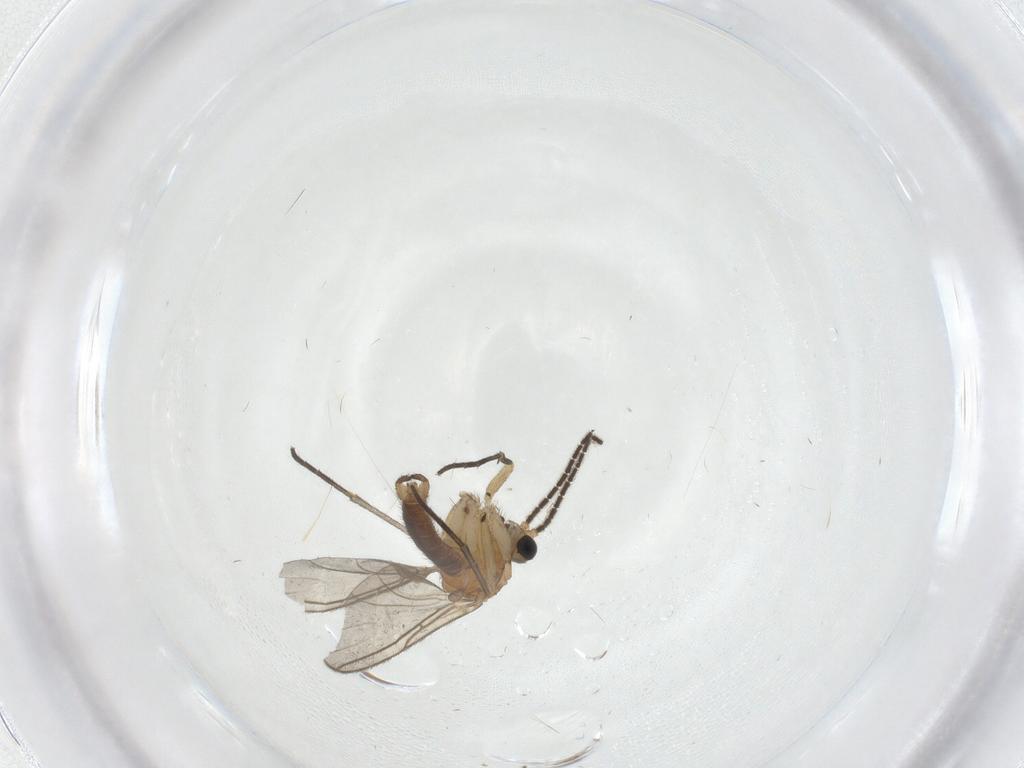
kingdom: Animalia
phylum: Arthropoda
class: Insecta
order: Diptera
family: Sciaridae
